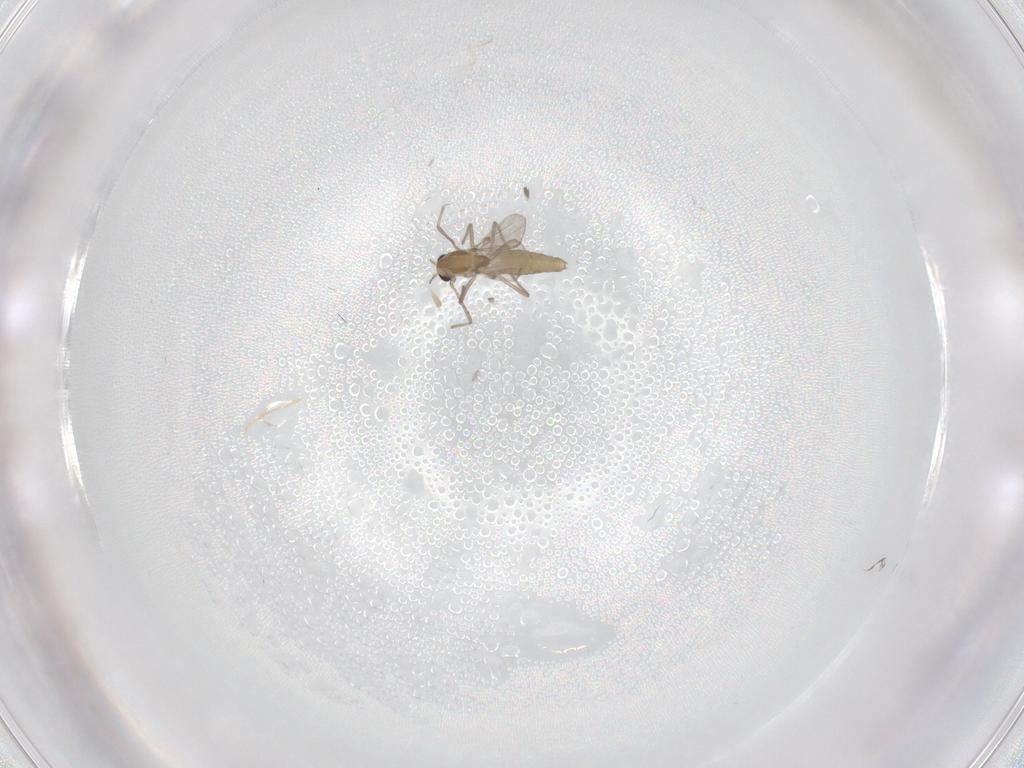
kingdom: Animalia
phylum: Arthropoda
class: Insecta
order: Diptera
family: Cecidomyiidae
